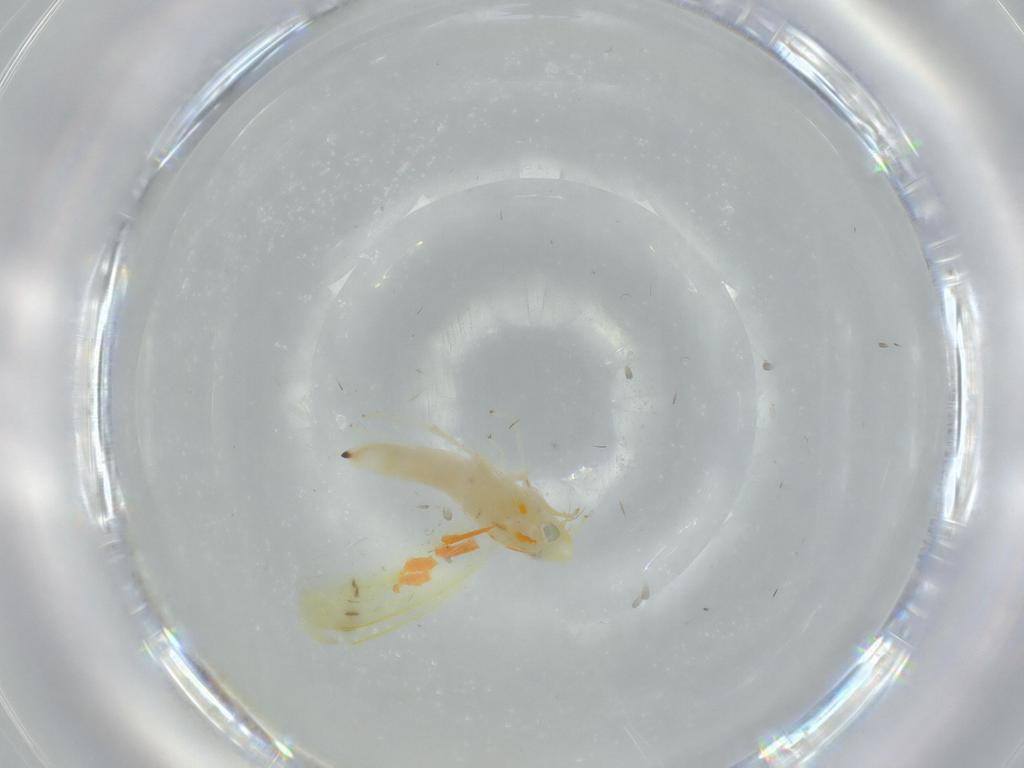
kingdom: Animalia
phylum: Arthropoda
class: Insecta
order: Hemiptera
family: Cicadellidae
